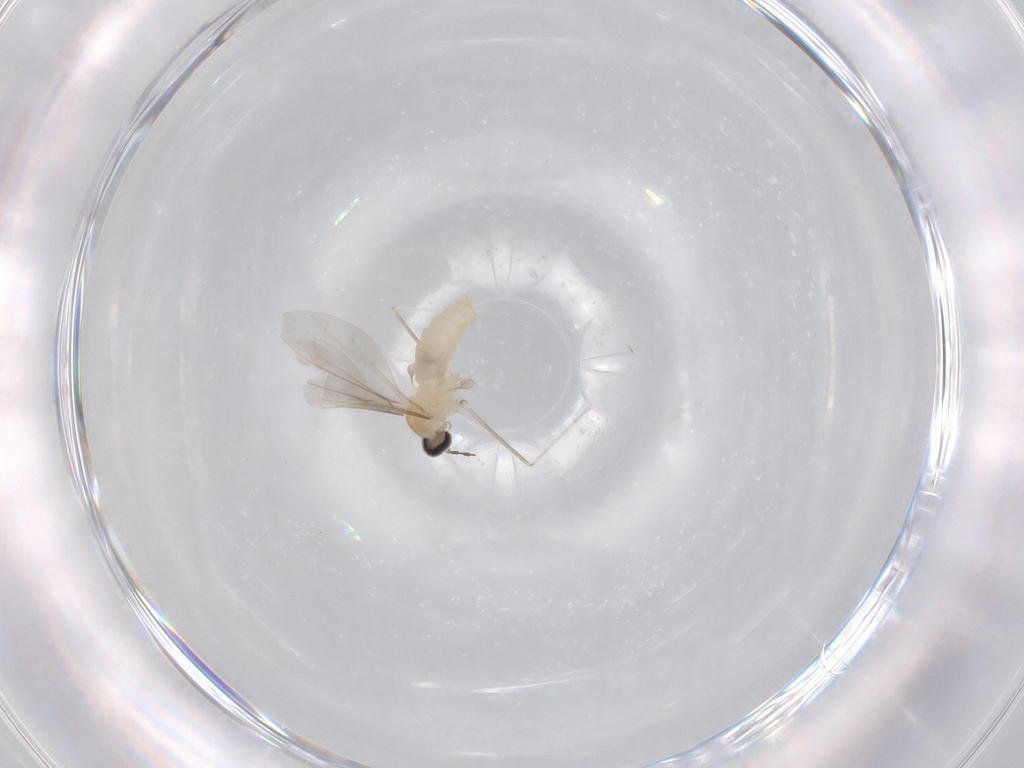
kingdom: Animalia
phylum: Arthropoda
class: Insecta
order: Diptera
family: Cecidomyiidae
